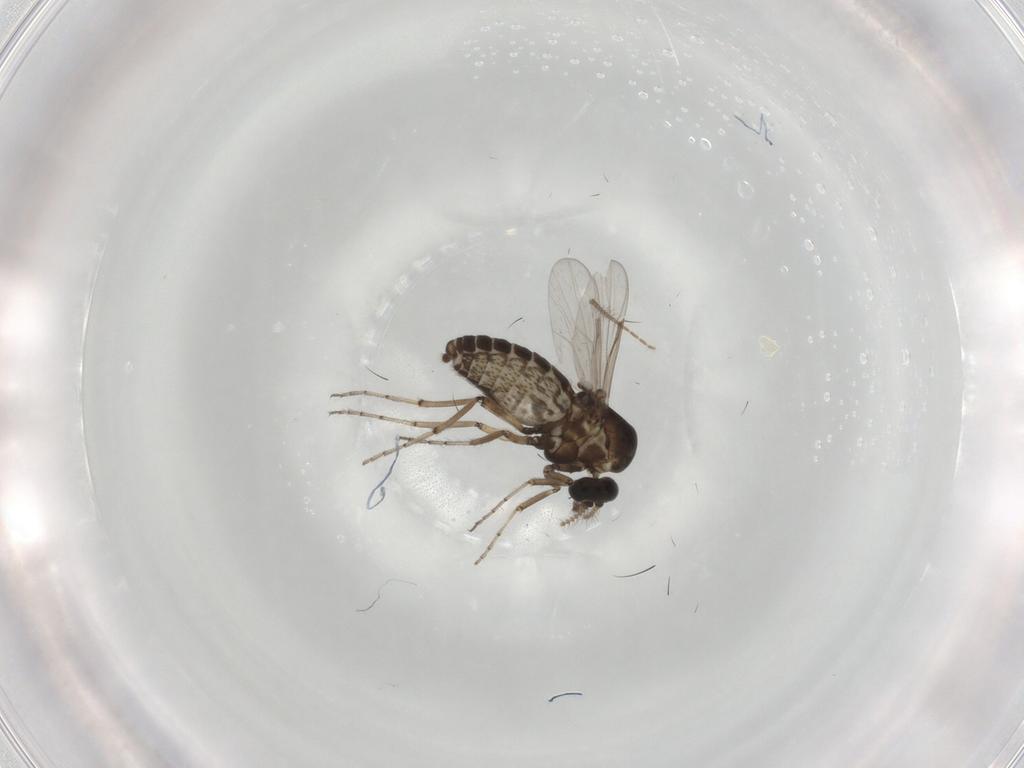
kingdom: Animalia
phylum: Arthropoda
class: Insecta
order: Diptera
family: Ceratopogonidae
